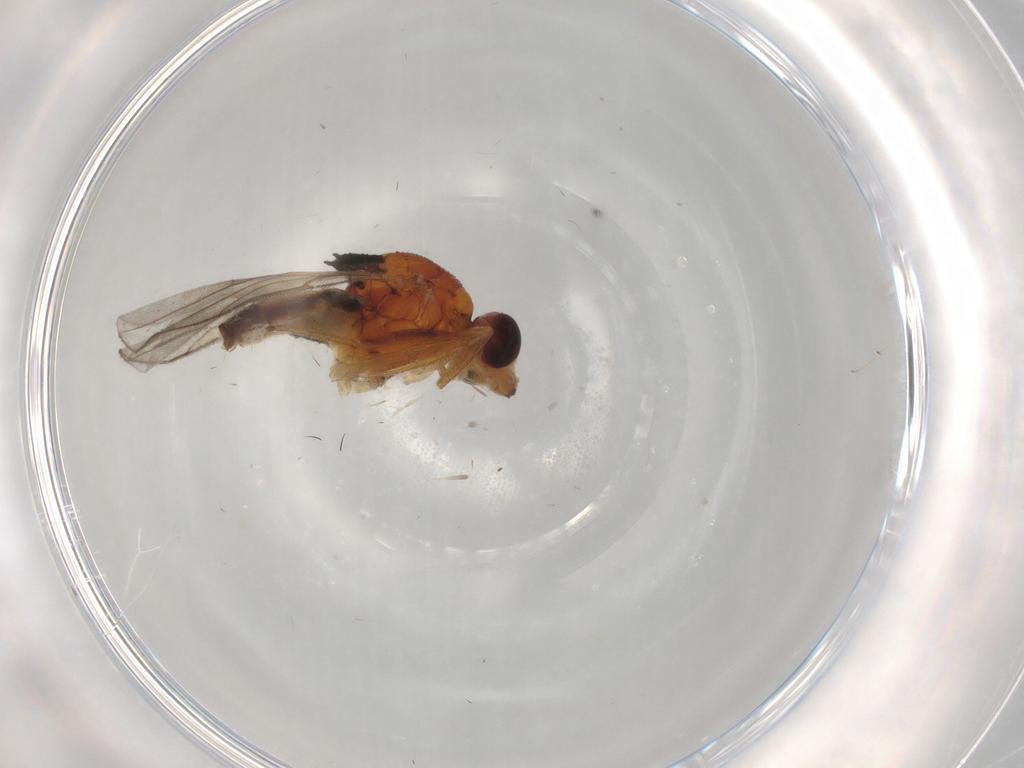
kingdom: Animalia
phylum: Arthropoda
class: Insecta
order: Diptera
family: Chloropidae
